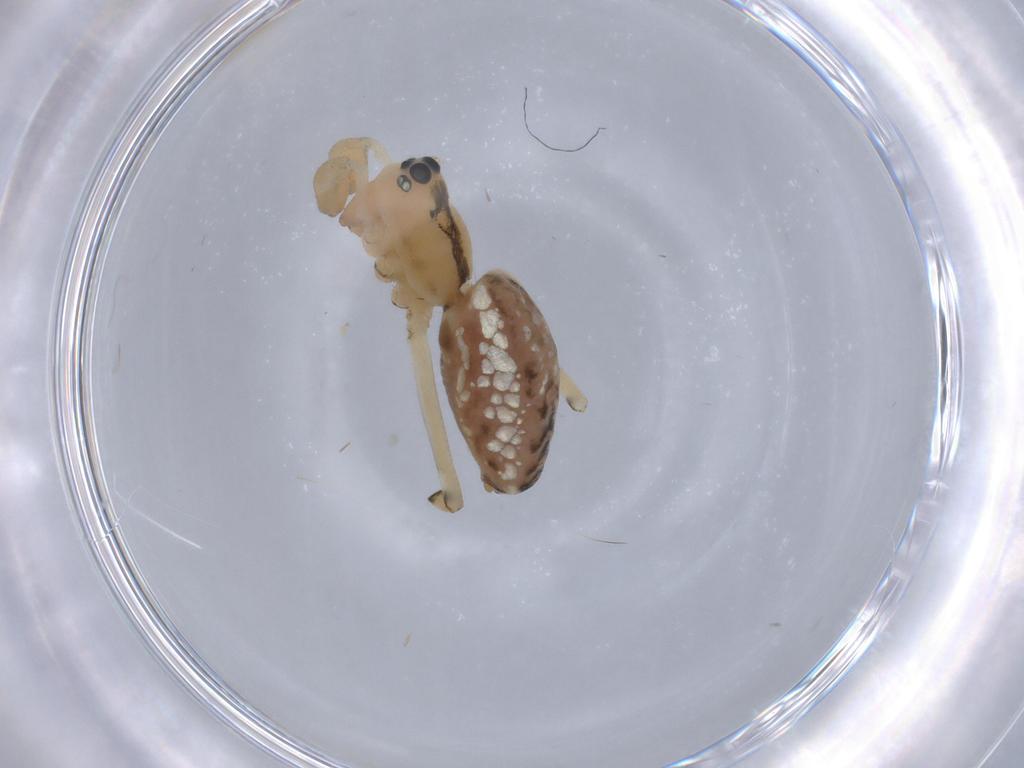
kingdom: Animalia
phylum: Arthropoda
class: Arachnida
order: Araneae
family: Linyphiidae
